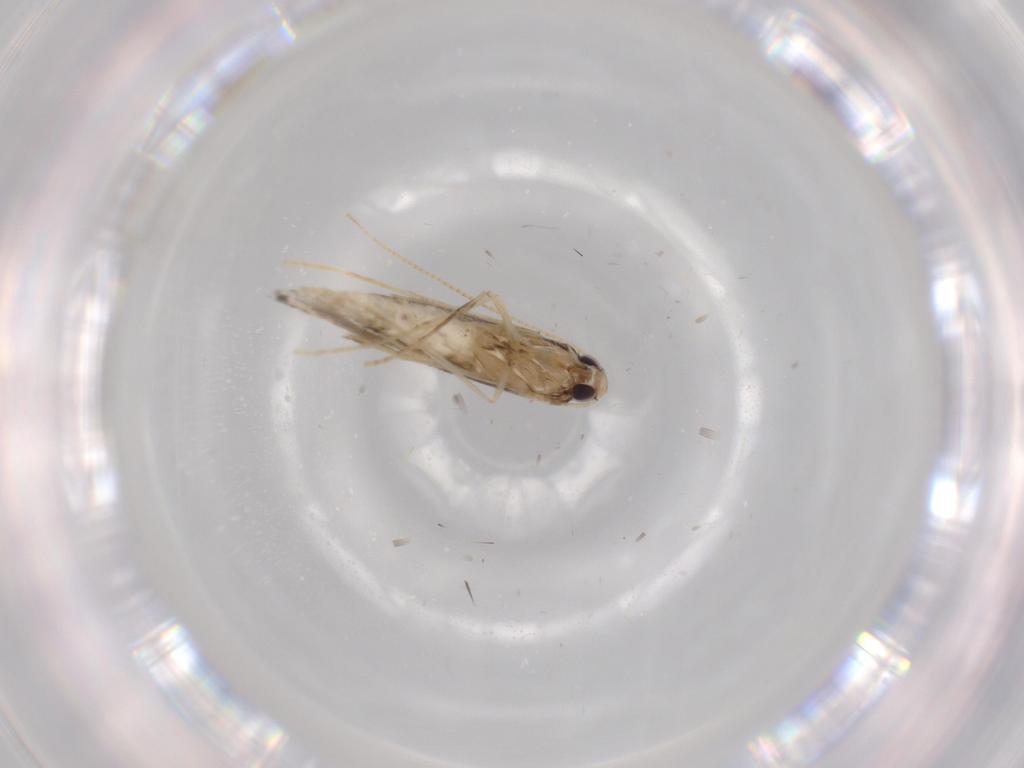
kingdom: Animalia
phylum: Arthropoda
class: Insecta
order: Lepidoptera
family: Gracillariidae
